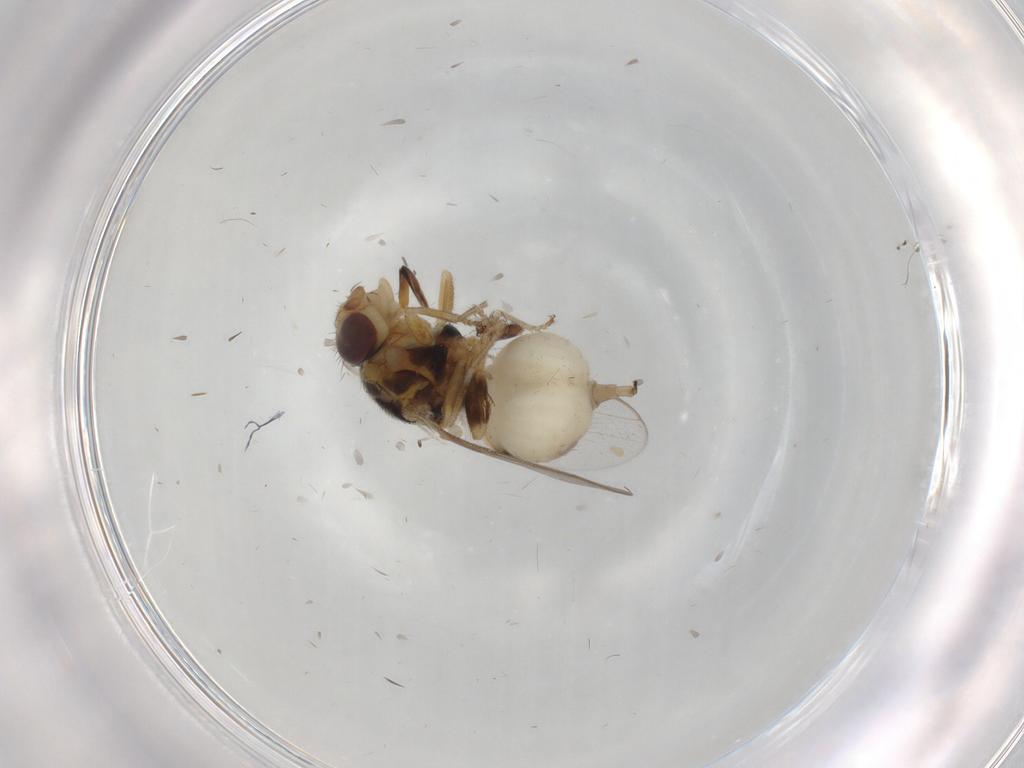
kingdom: Animalia
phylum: Arthropoda
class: Insecta
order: Diptera
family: Chloropidae
